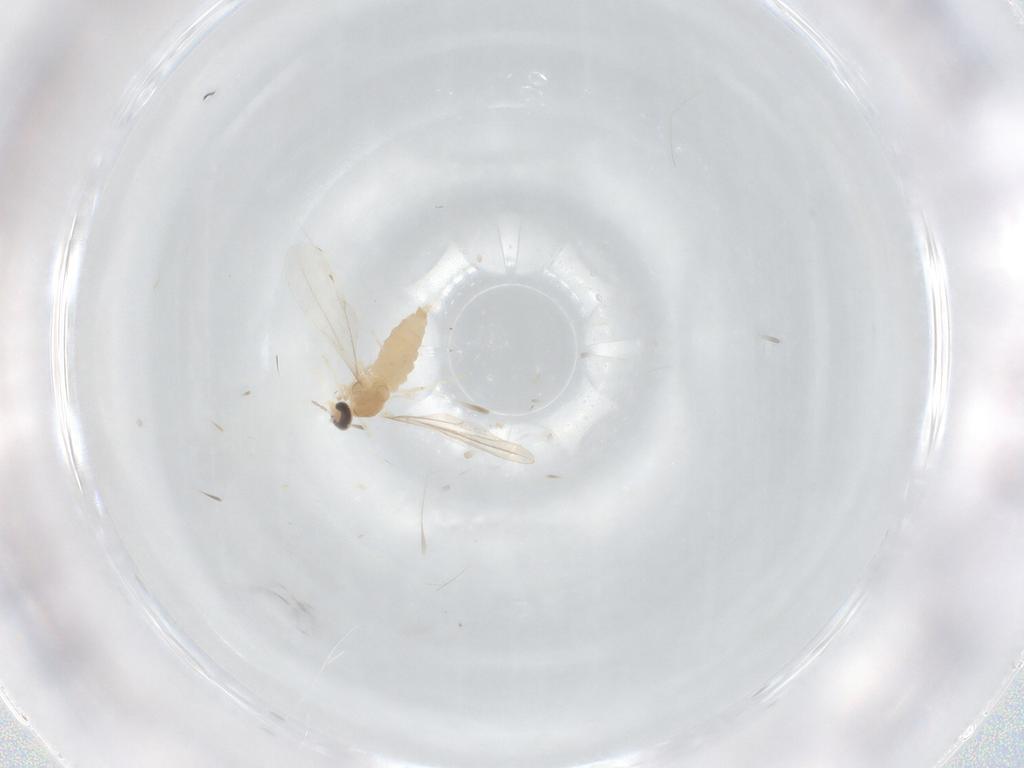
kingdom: Animalia
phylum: Arthropoda
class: Insecta
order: Diptera
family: Cecidomyiidae
